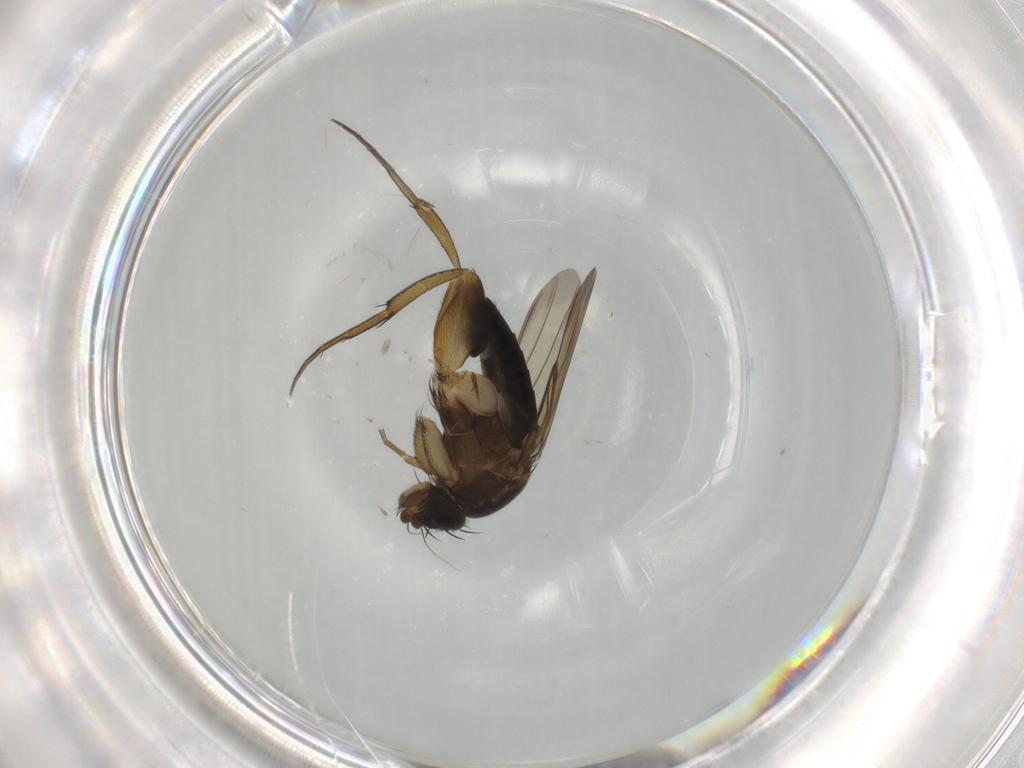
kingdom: Animalia
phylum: Arthropoda
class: Insecta
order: Diptera
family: Phoridae
